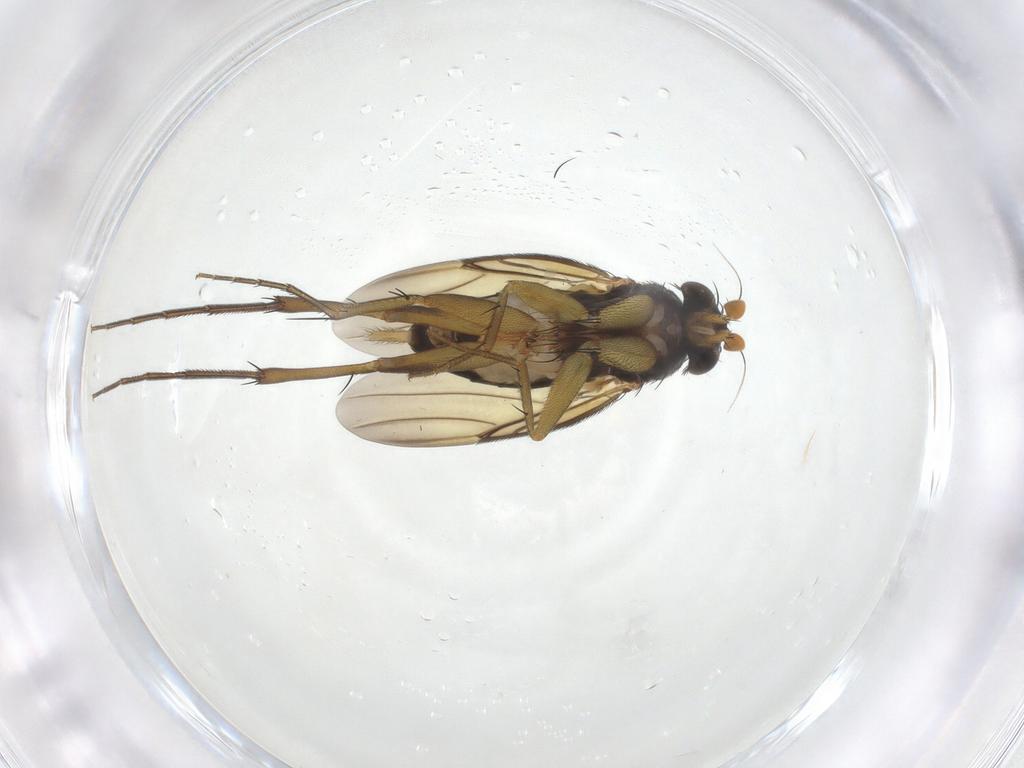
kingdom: Animalia
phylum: Arthropoda
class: Insecta
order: Diptera
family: Phoridae
